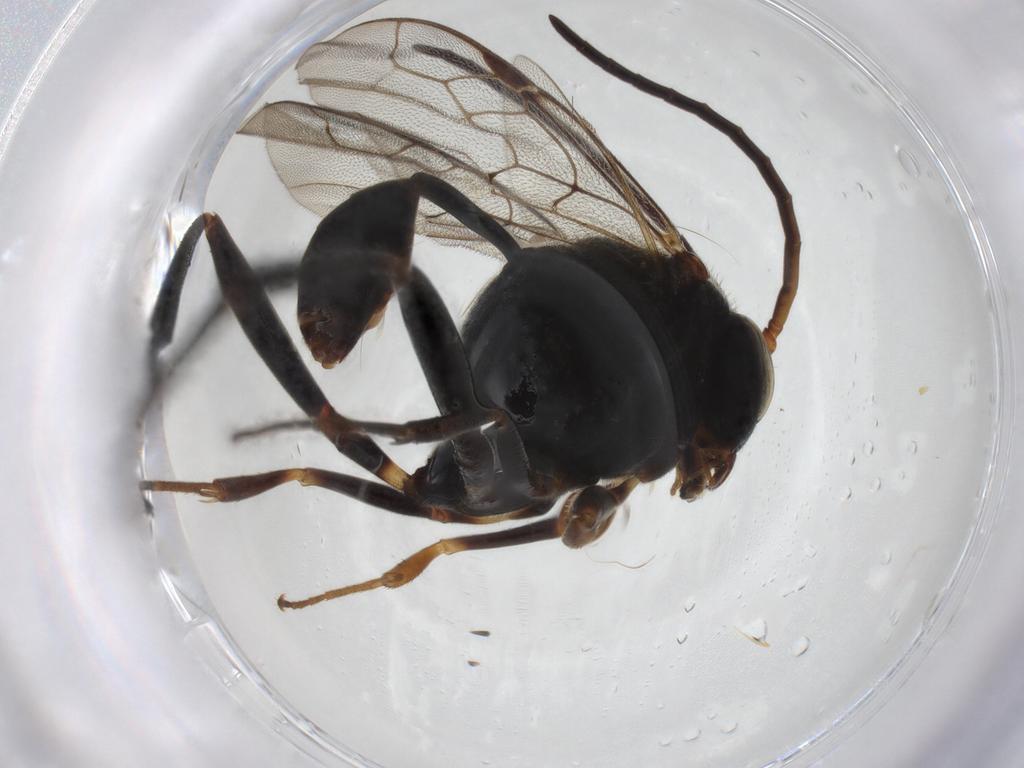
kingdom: Animalia
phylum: Arthropoda
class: Insecta
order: Hymenoptera
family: Evaniidae
